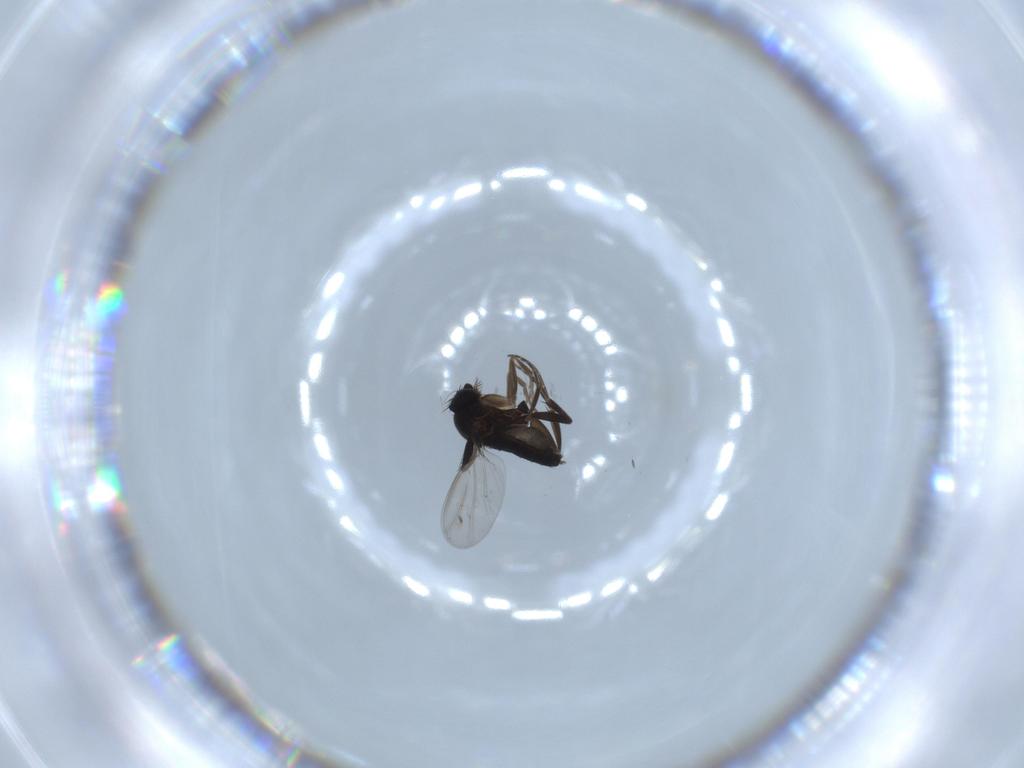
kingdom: Animalia
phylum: Arthropoda
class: Insecta
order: Diptera
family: Phoridae
